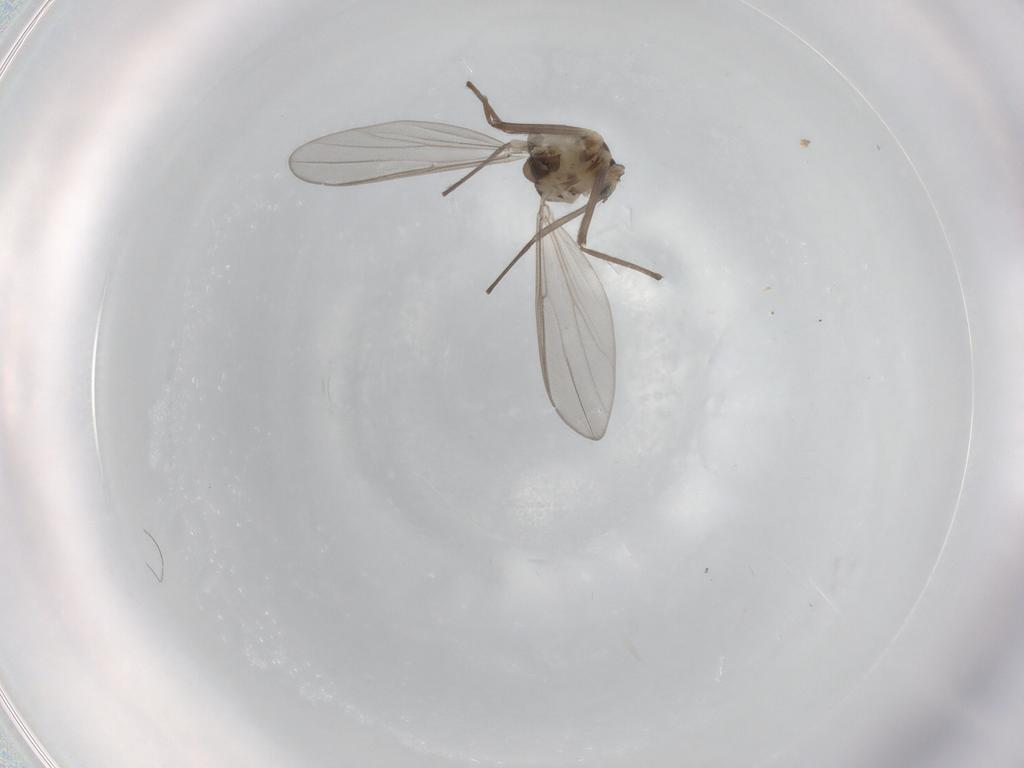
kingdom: Animalia
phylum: Arthropoda
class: Insecta
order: Diptera
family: Chironomidae
